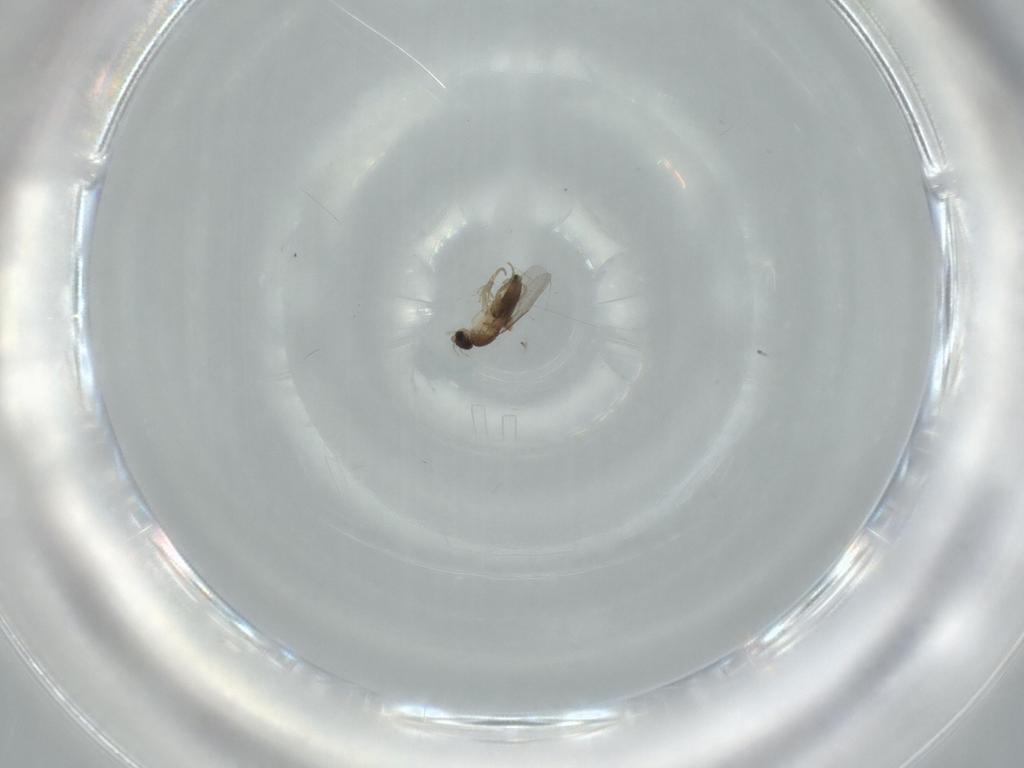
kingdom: Animalia
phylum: Arthropoda
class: Insecta
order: Diptera
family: Phoridae
